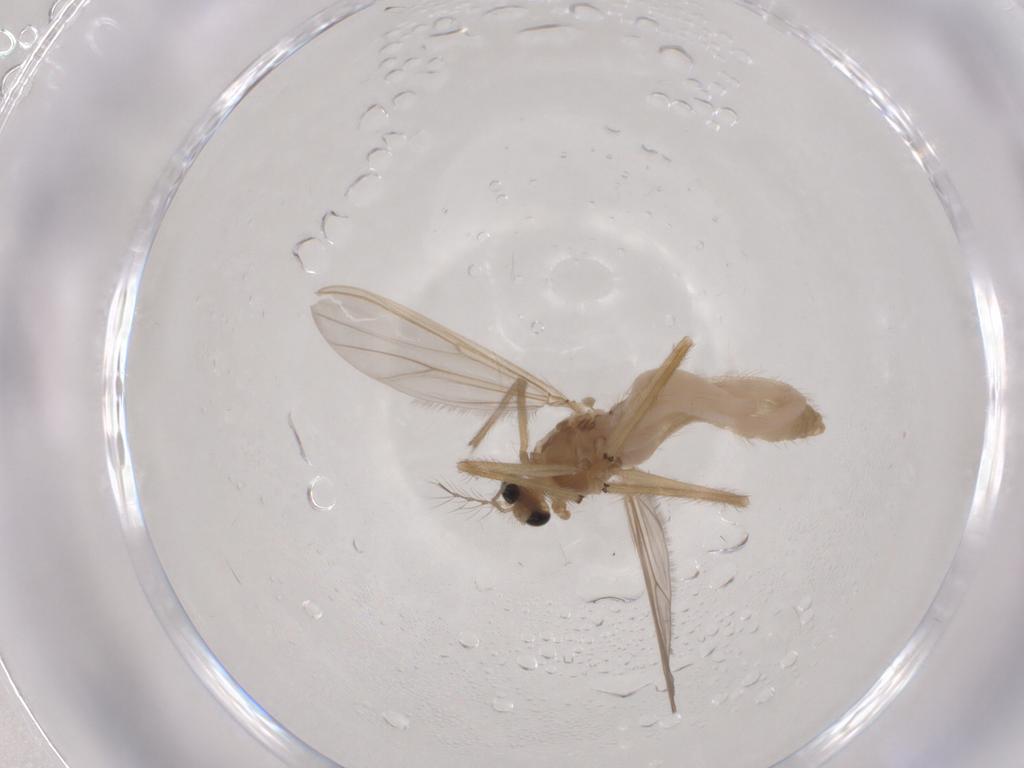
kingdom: Animalia
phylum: Arthropoda
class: Insecta
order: Diptera
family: Chironomidae
